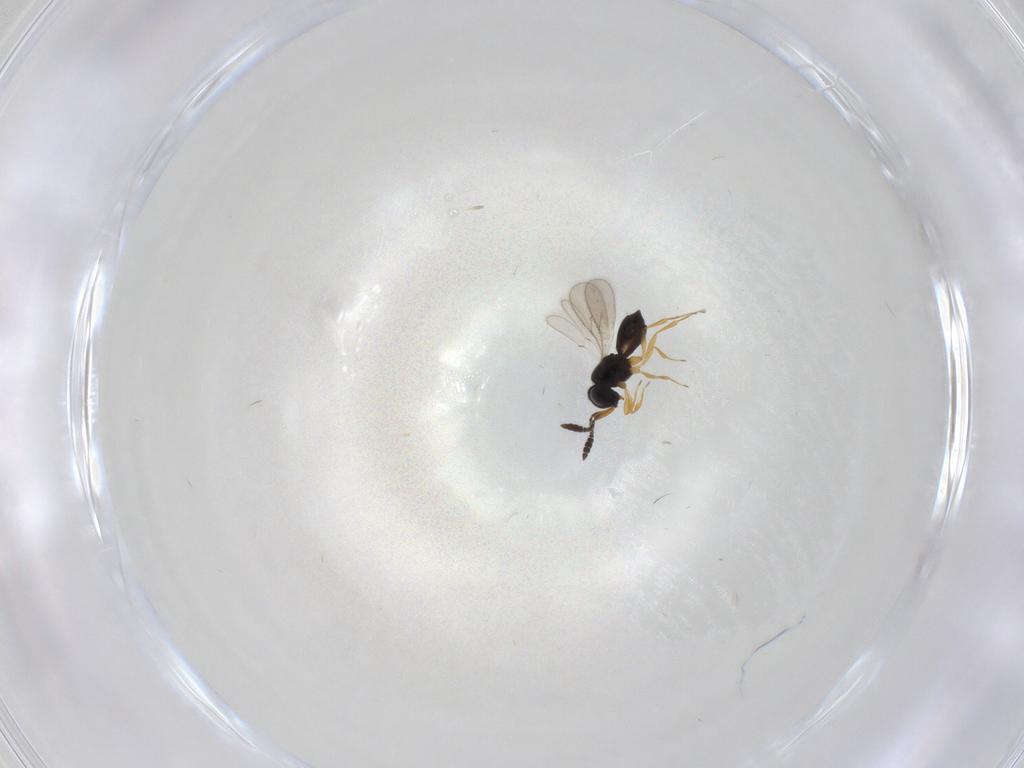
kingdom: Animalia
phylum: Arthropoda
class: Insecta
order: Hymenoptera
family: Scelionidae
